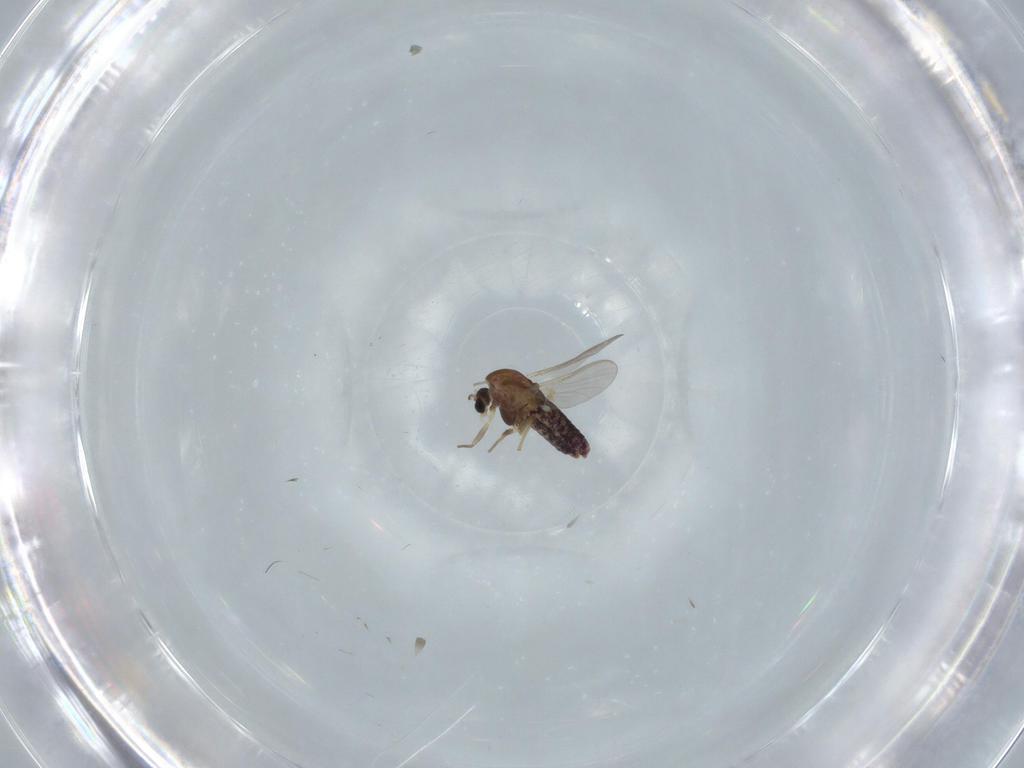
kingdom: Animalia
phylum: Arthropoda
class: Insecta
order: Diptera
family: Chironomidae
